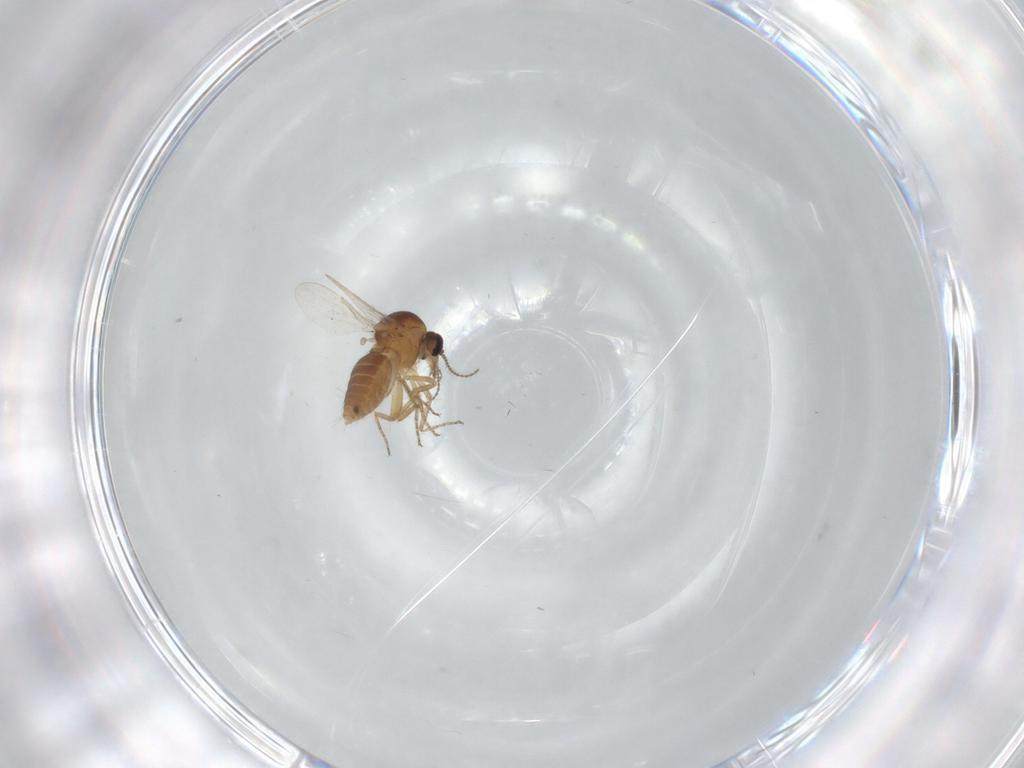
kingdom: Animalia
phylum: Arthropoda
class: Insecta
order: Diptera
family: Ceratopogonidae
